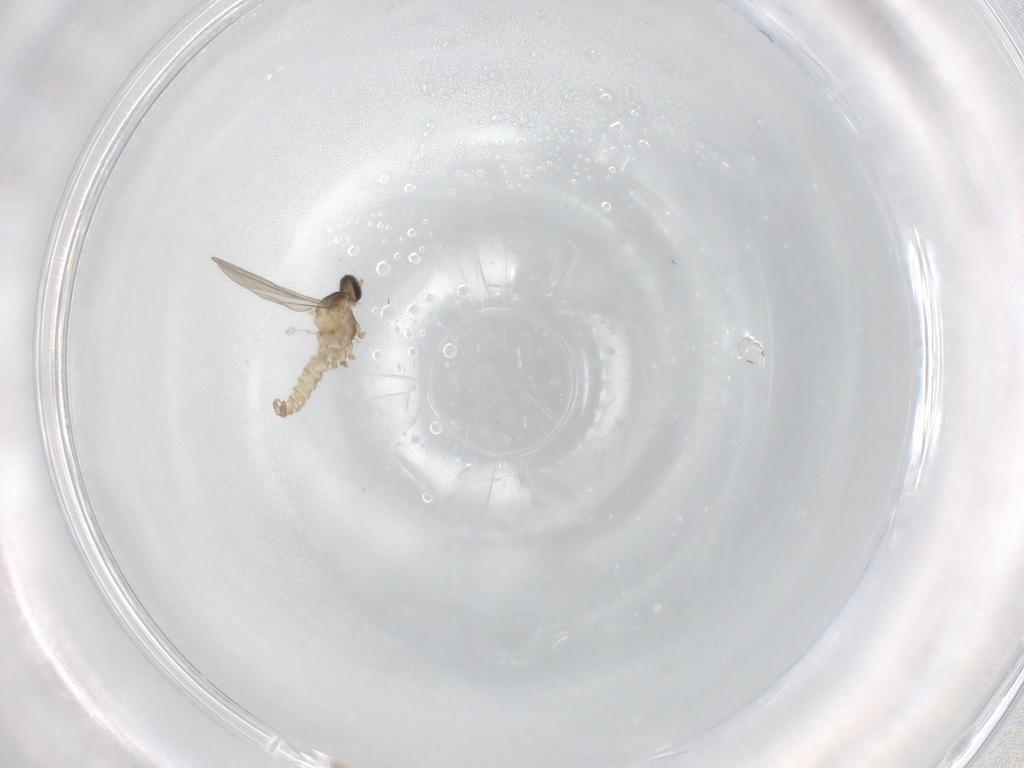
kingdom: Animalia
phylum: Arthropoda
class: Insecta
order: Diptera
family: Cecidomyiidae
